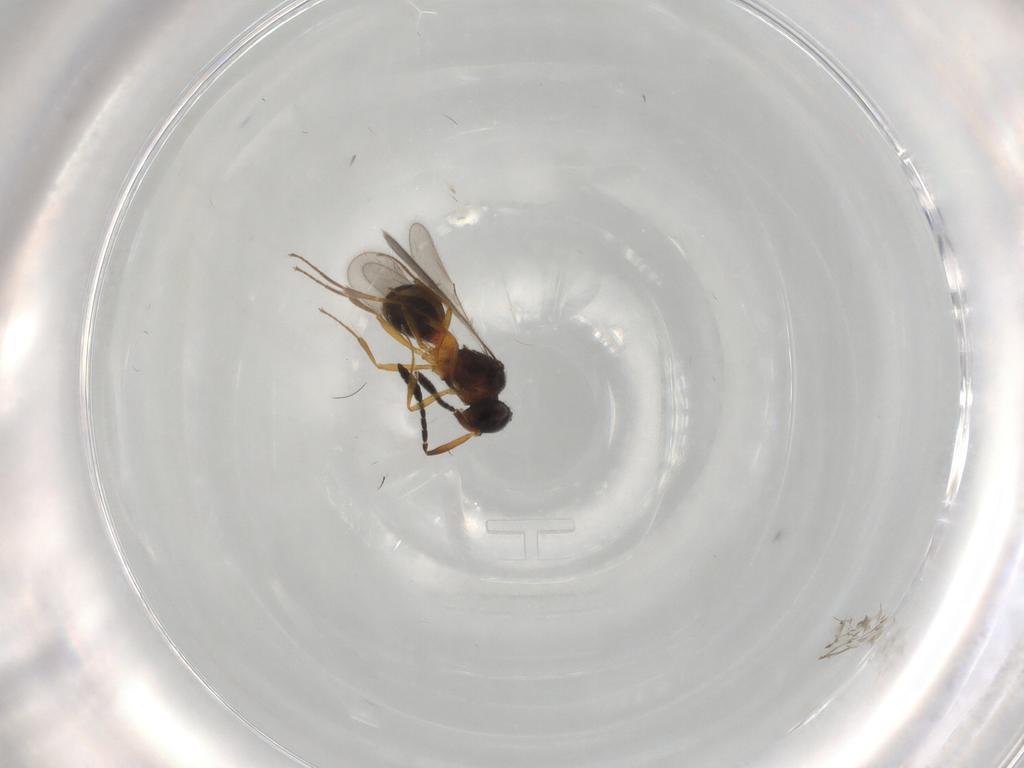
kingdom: Animalia
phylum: Arthropoda
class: Insecta
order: Hymenoptera
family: Scelionidae
